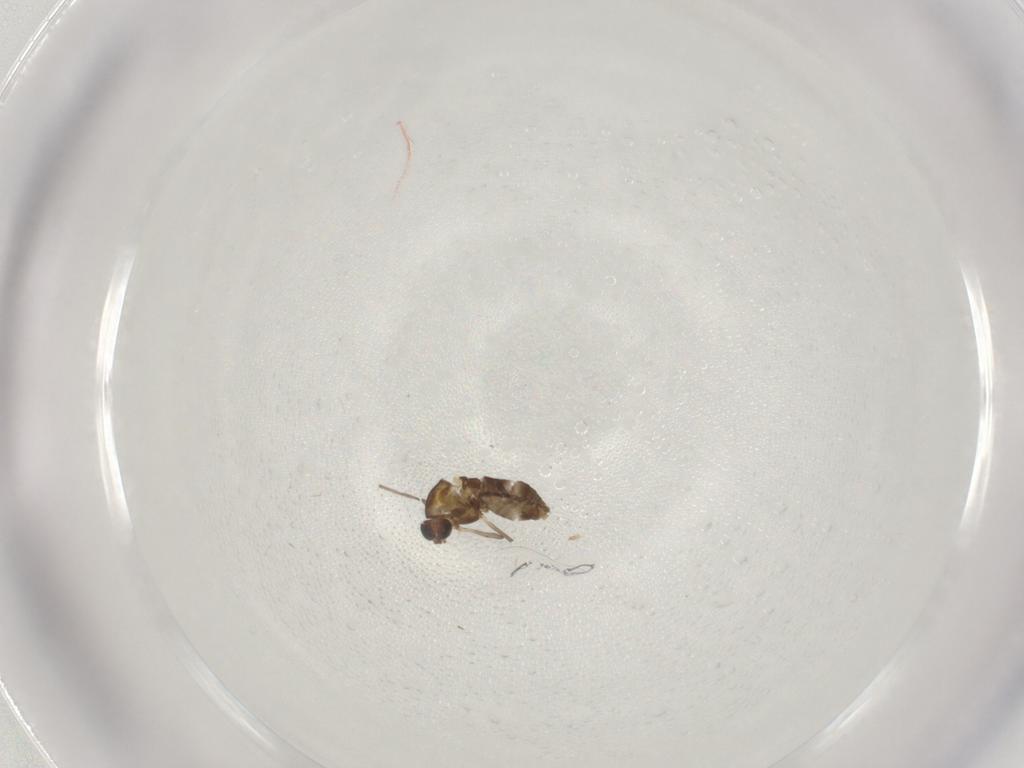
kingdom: Animalia
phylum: Arthropoda
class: Insecta
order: Diptera
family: Chironomidae
